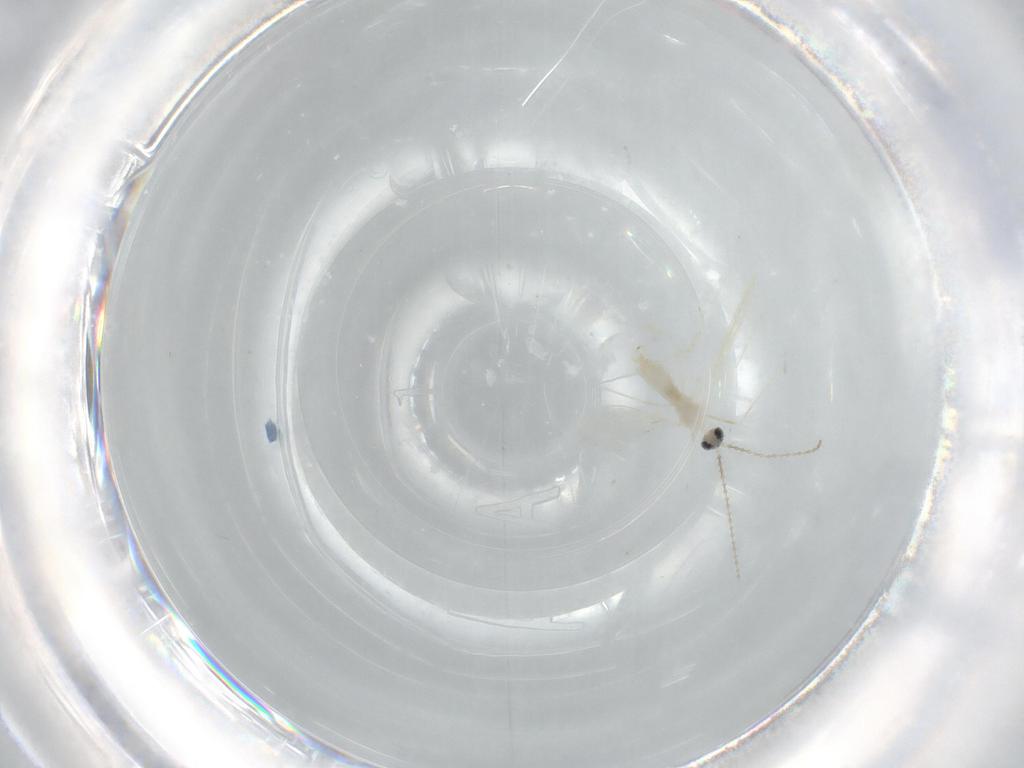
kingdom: Animalia
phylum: Arthropoda
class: Insecta
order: Diptera
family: Cecidomyiidae
